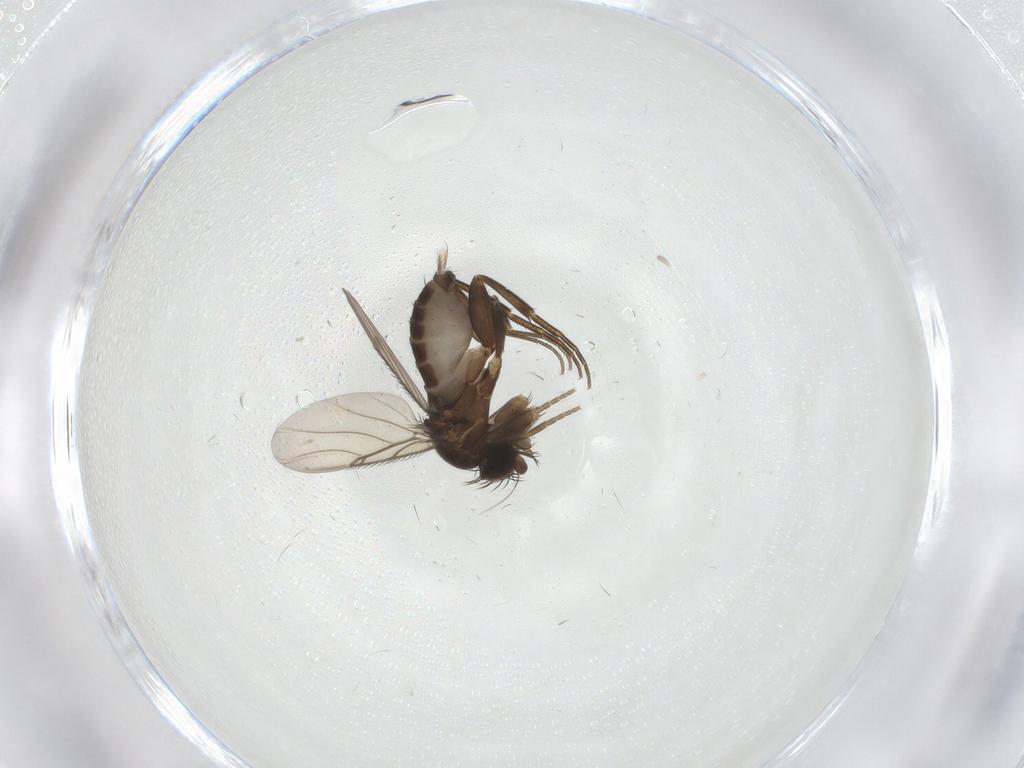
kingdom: Animalia
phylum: Arthropoda
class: Insecta
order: Diptera
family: Phoridae
